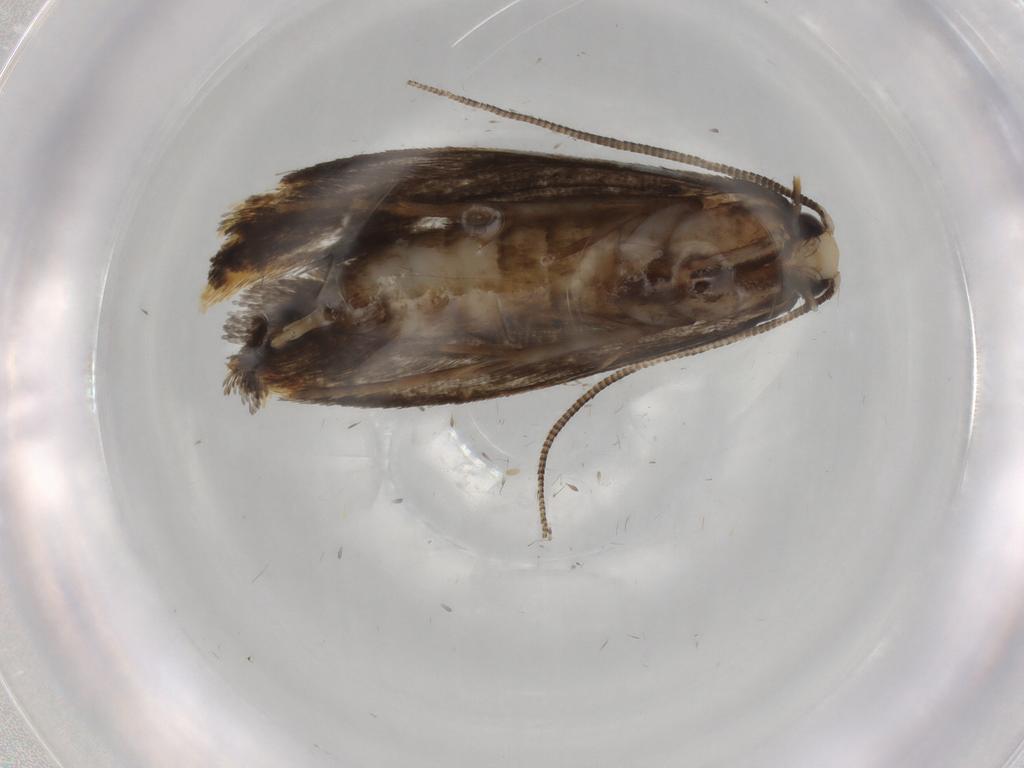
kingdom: Animalia
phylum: Arthropoda
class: Insecta
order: Lepidoptera
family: Tineidae
